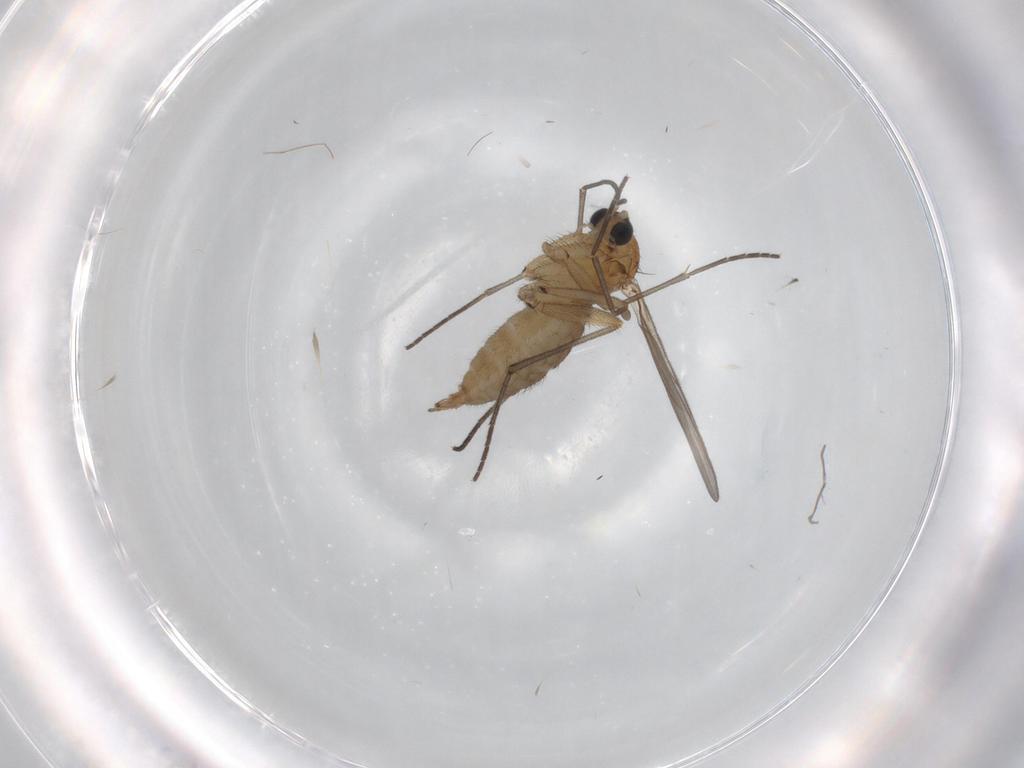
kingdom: Animalia
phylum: Arthropoda
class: Insecta
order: Diptera
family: Sciaridae
